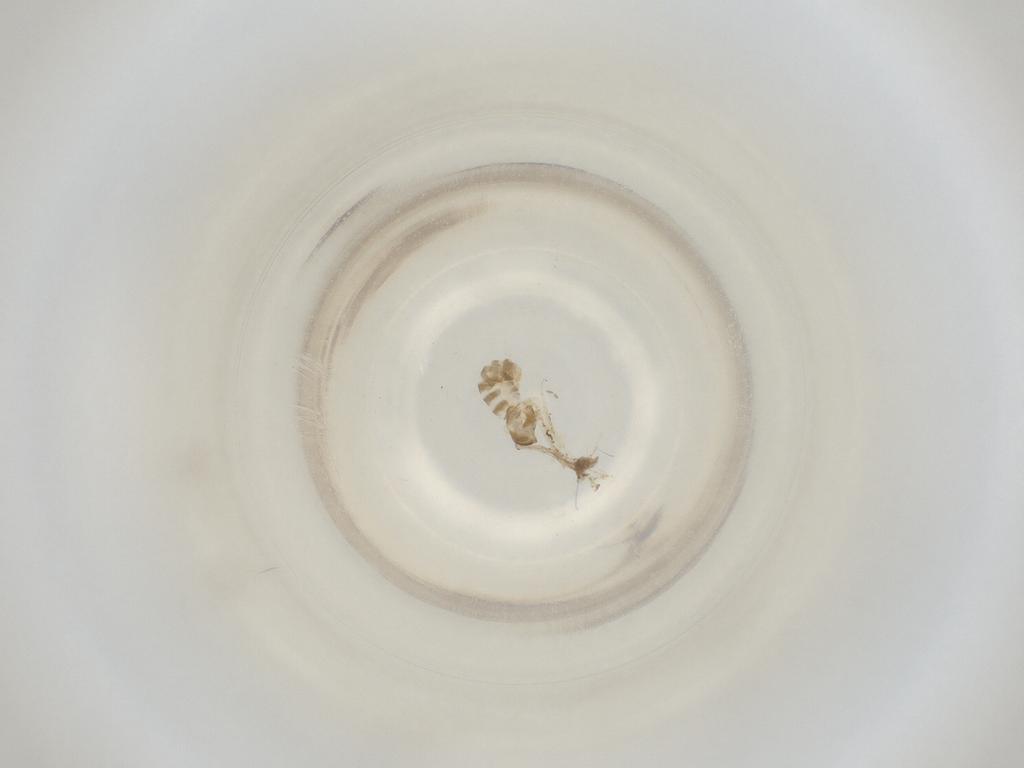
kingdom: Animalia
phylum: Arthropoda
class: Insecta
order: Diptera
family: Cecidomyiidae
